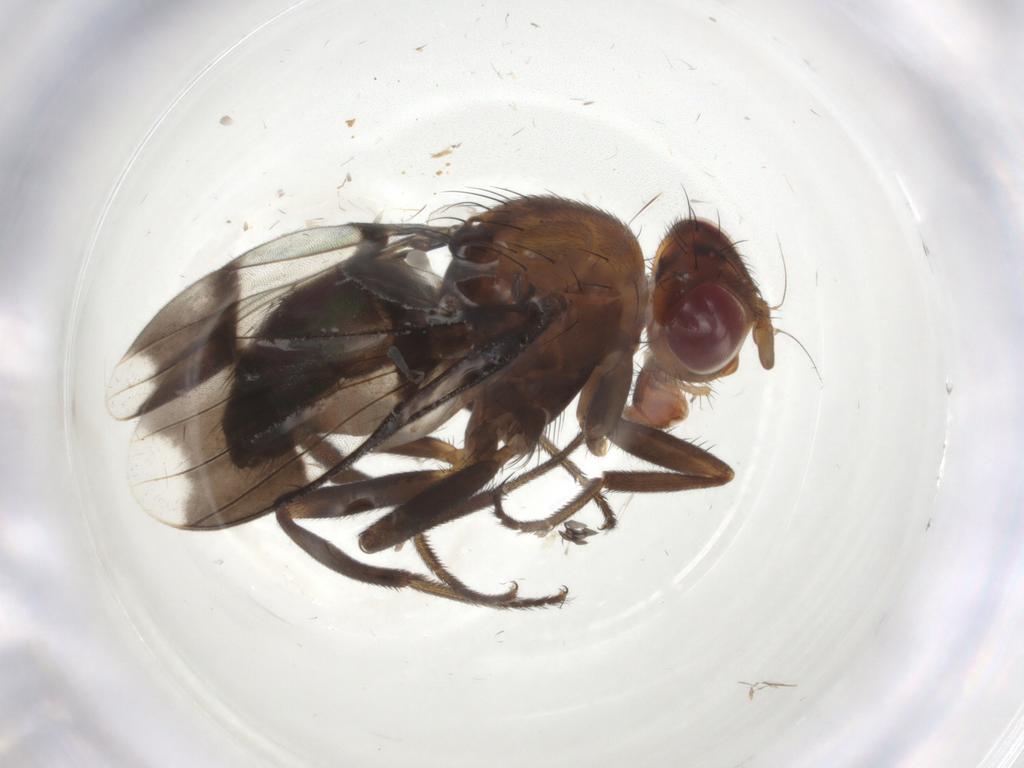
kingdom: Animalia
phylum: Arthropoda
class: Insecta
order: Diptera
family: Richardiidae
